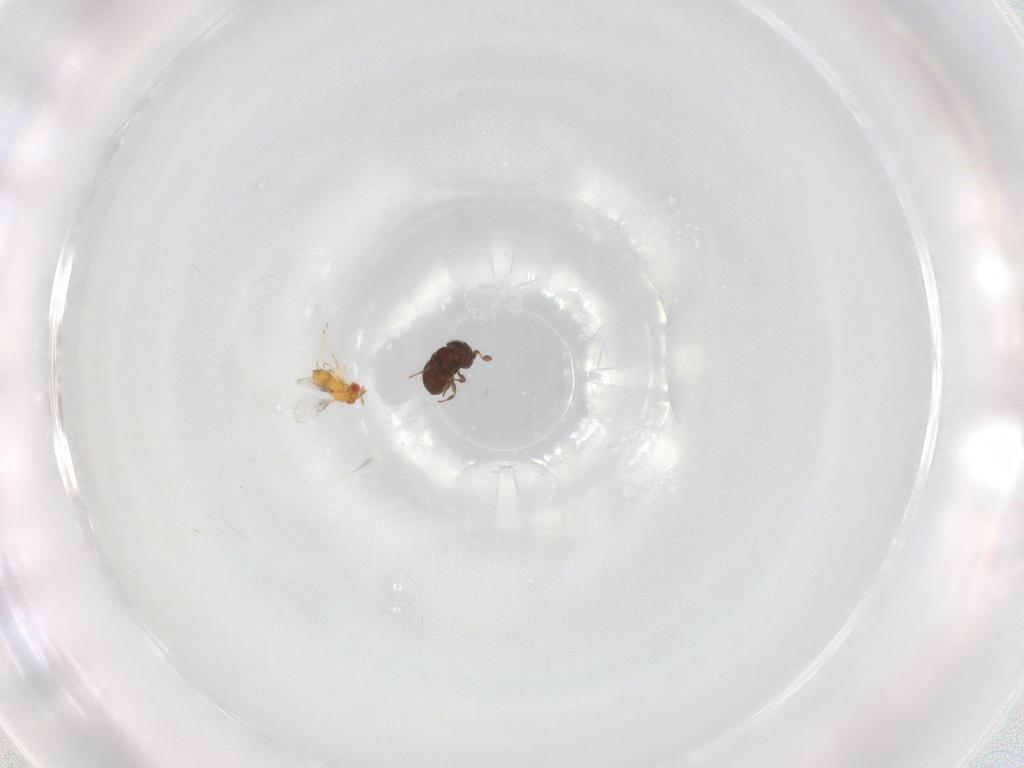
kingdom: Animalia
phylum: Arthropoda
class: Insecta
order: Hymenoptera
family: Scelionidae
